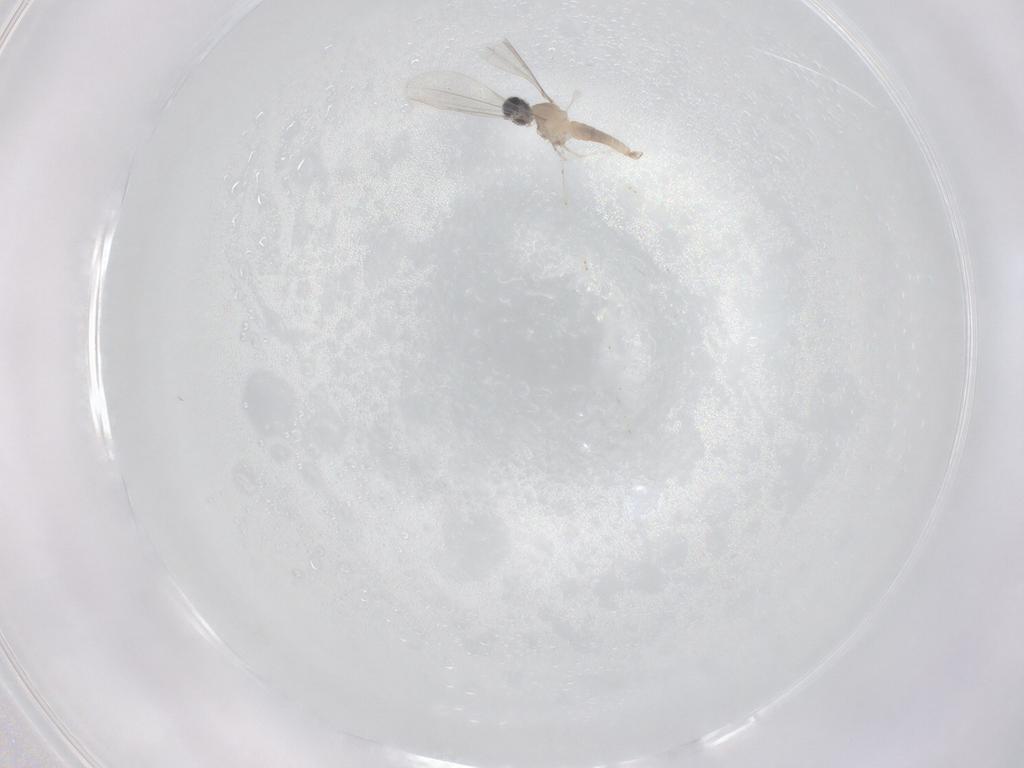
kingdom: Animalia
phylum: Arthropoda
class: Insecta
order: Diptera
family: Cecidomyiidae
